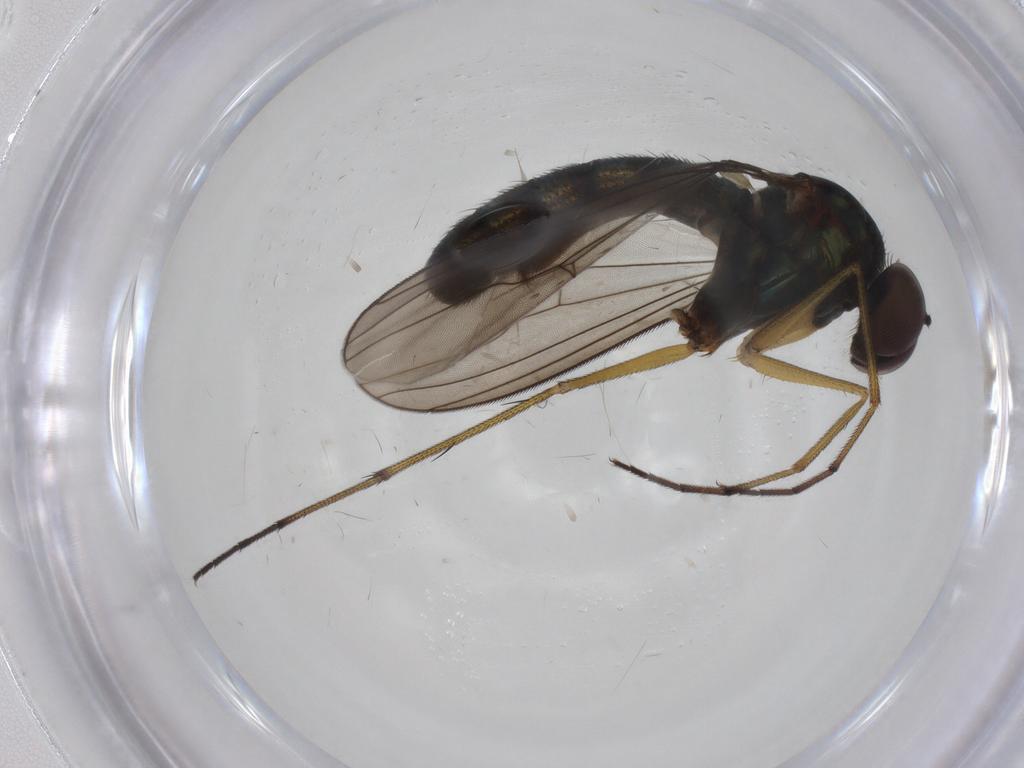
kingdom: Animalia
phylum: Arthropoda
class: Insecta
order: Diptera
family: Dolichopodidae
